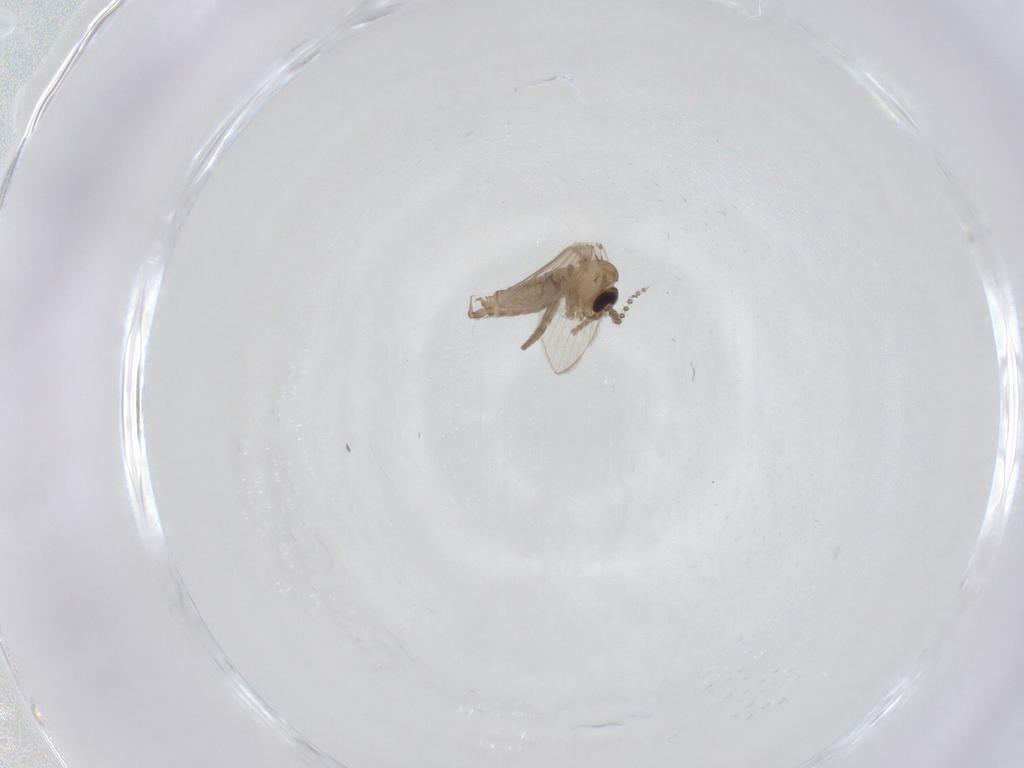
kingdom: Animalia
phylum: Arthropoda
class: Insecta
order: Diptera
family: Psychodidae
